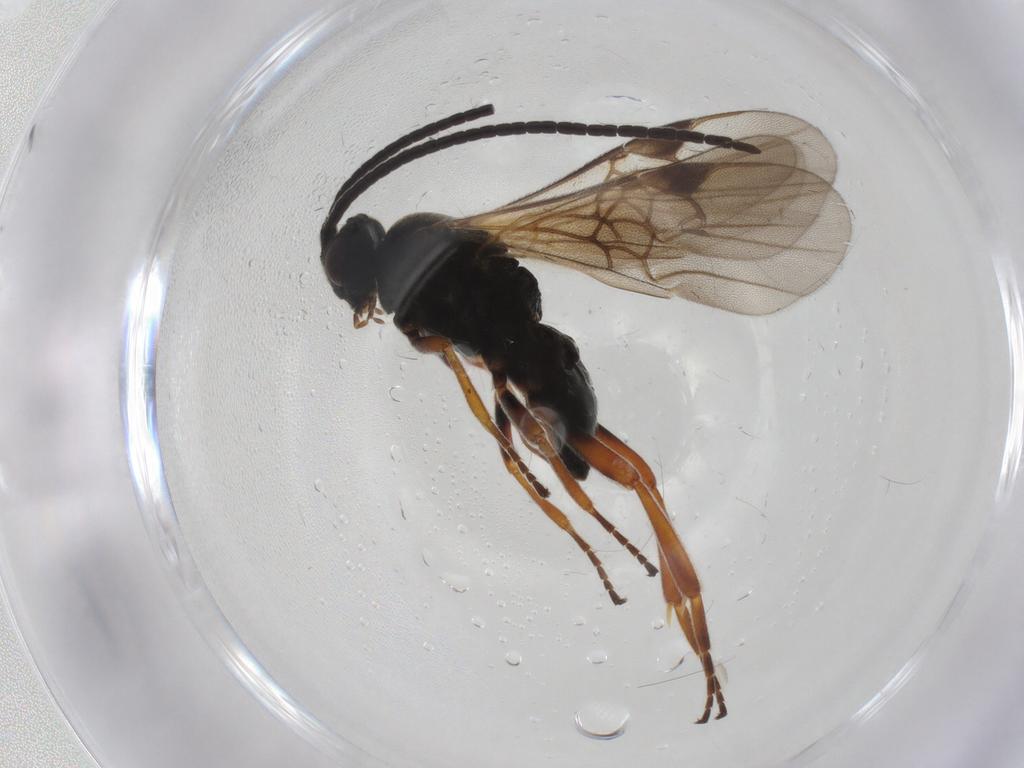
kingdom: Animalia
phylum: Arthropoda
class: Insecta
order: Hymenoptera
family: Braconidae
